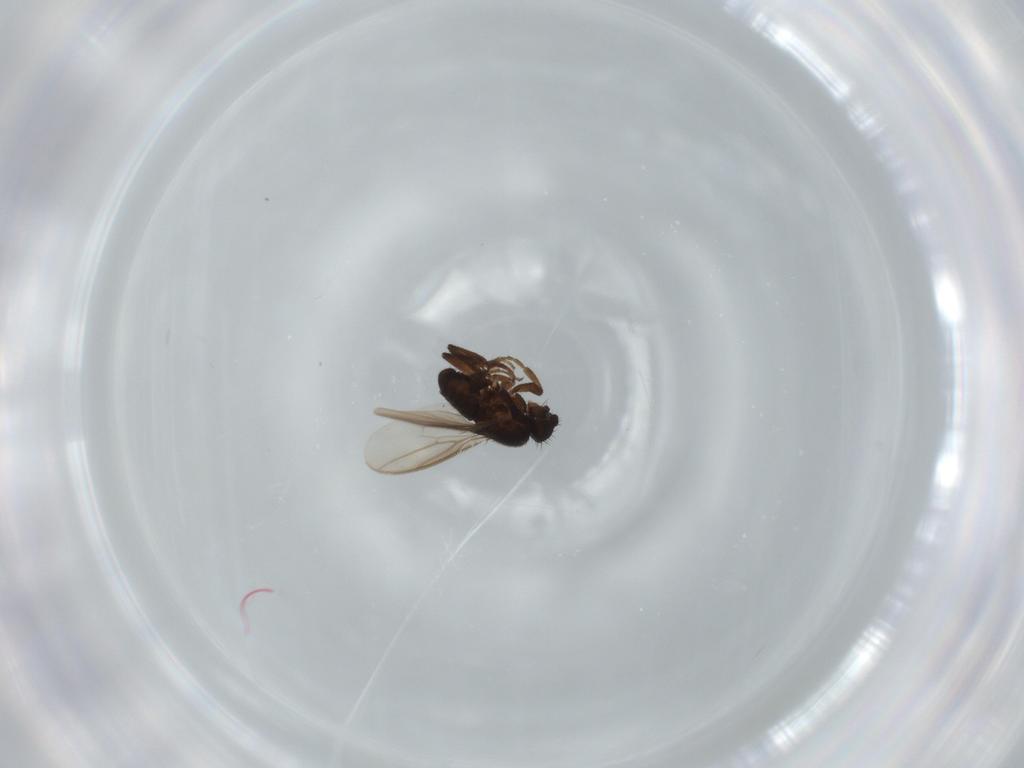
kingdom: Animalia
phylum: Arthropoda
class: Insecta
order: Diptera
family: Sphaeroceridae
